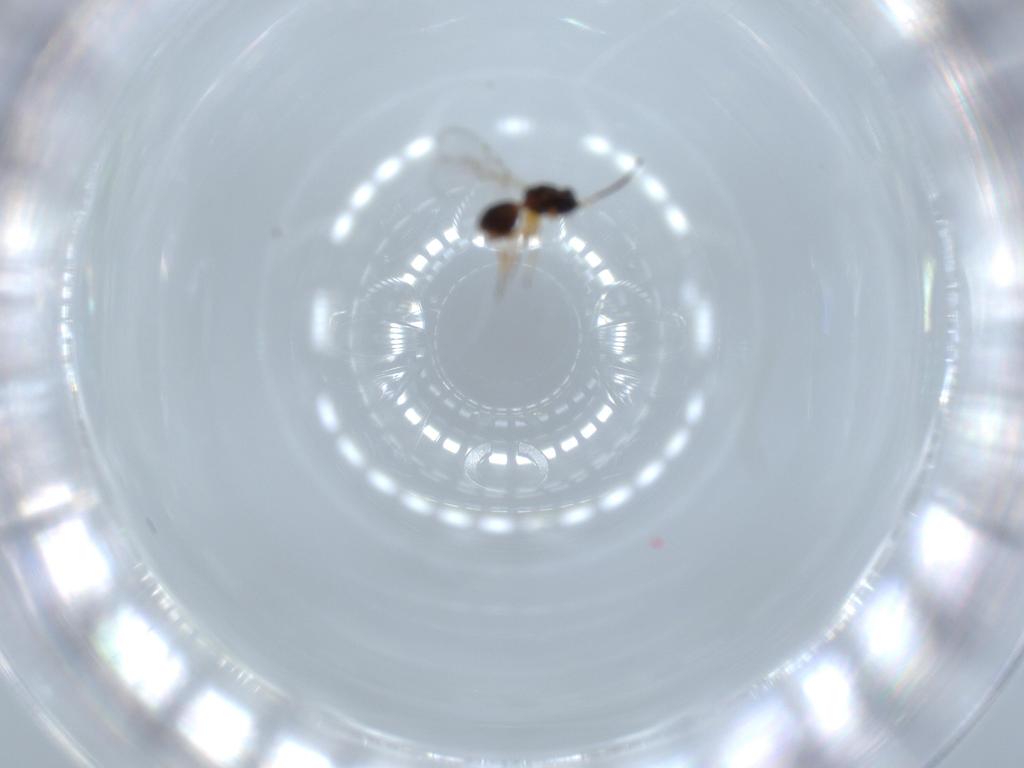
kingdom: Animalia
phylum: Arthropoda
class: Insecta
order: Hymenoptera
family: Figitidae
